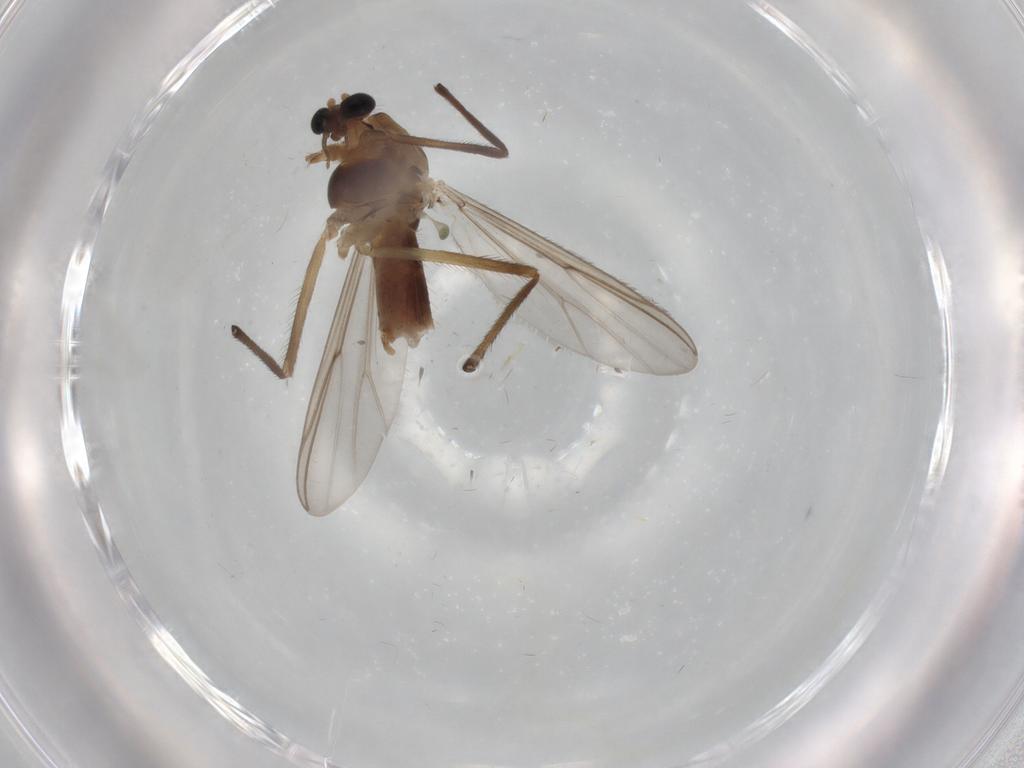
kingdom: Animalia
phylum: Arthropoda
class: Insecta
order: Diptera
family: Chironomidae
